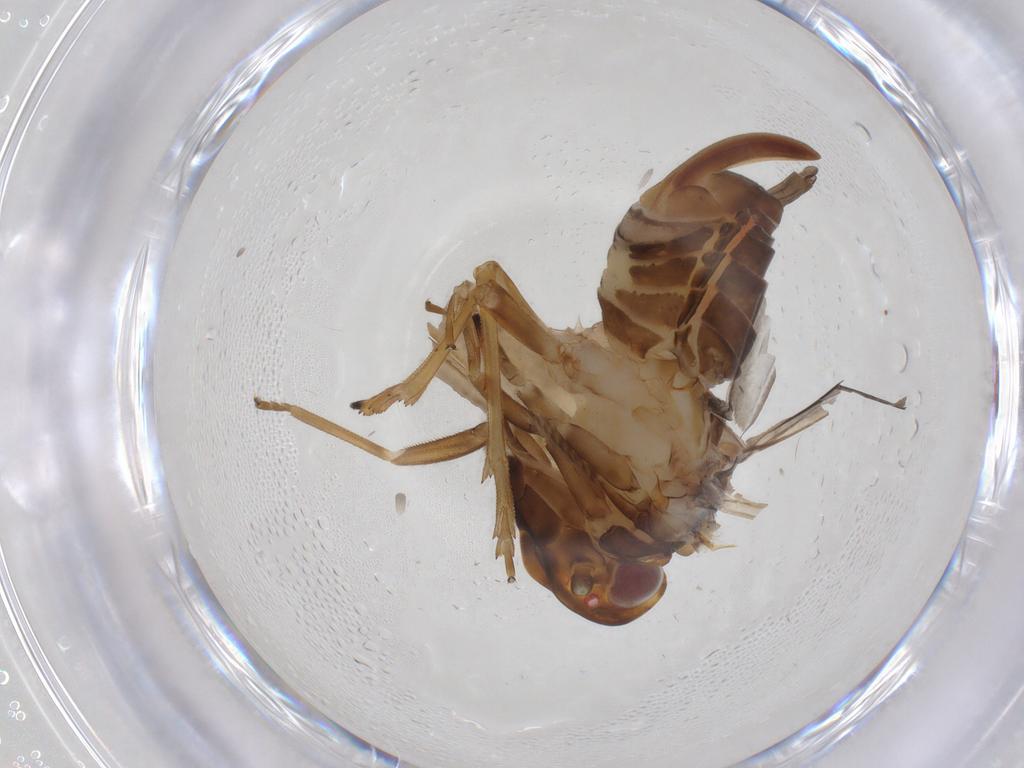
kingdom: Animalia
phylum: Arthropoda
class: Insecta
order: Hemiptera
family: Cixiidae
